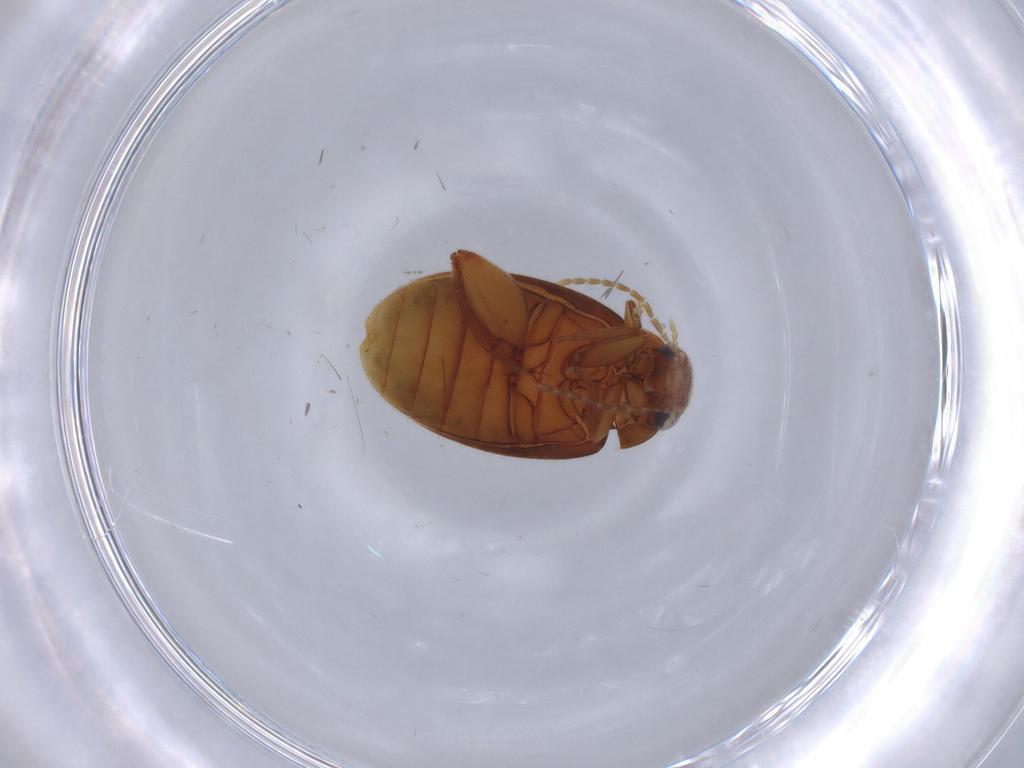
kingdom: Animalia
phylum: Arthropoda
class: Insecta
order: Coleoptera
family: Scirtidae
